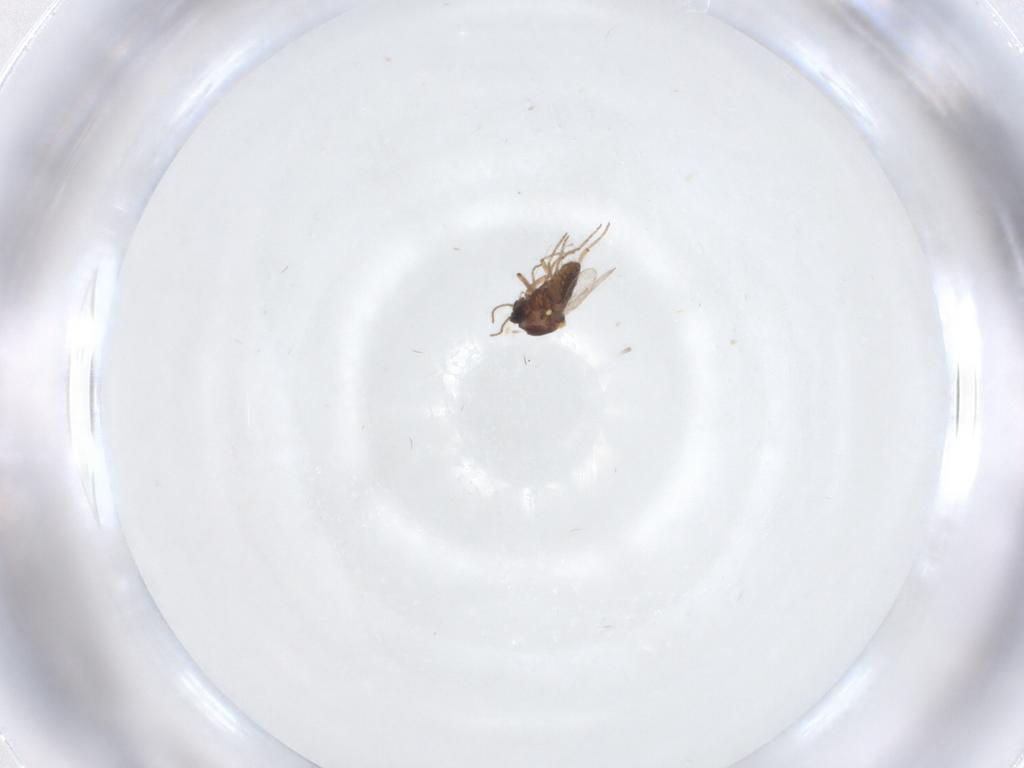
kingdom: Animalia
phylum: Arthropoda
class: Insecta
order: Diptera
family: Ceratopogonidae
